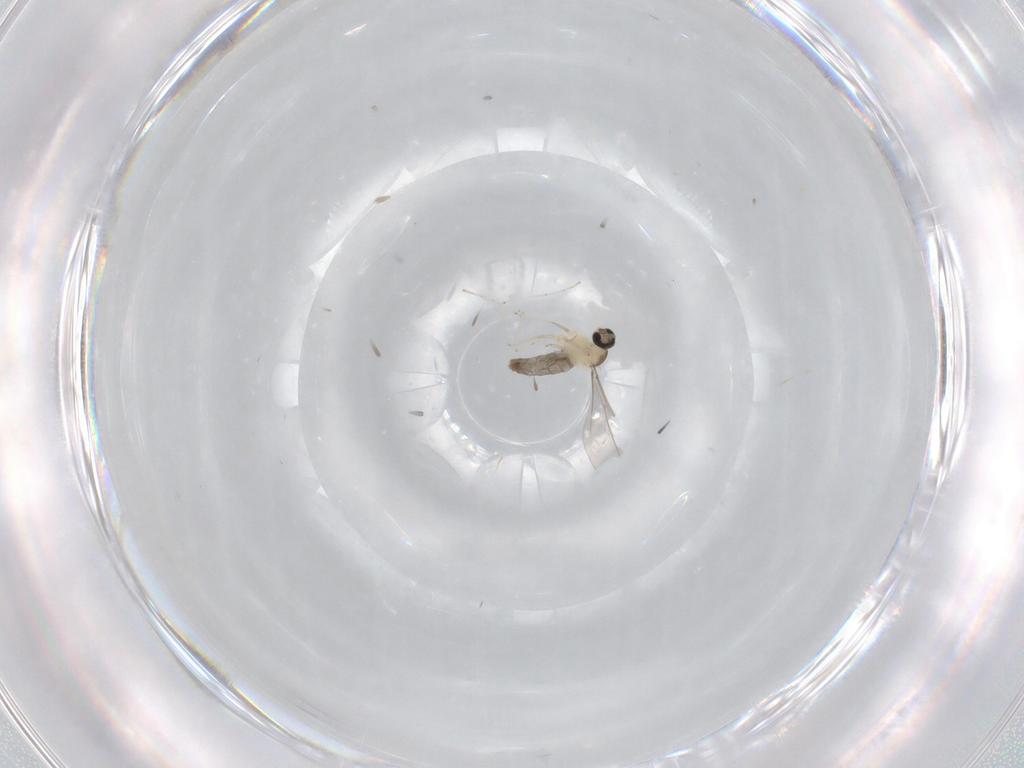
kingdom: Animalia
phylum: Arthropoda
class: Insecta
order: Diptera
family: Cecidomyiidae
